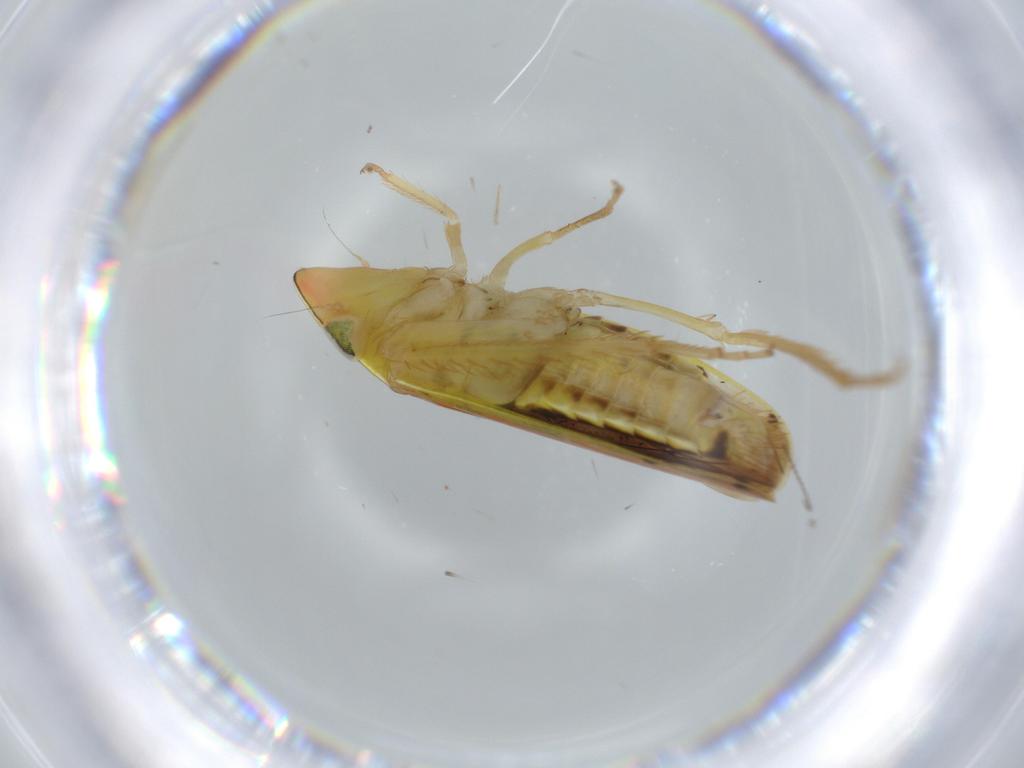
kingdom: Animalia
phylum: Arthropoda
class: Insecta
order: Hemiptera
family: Cicadellidae
